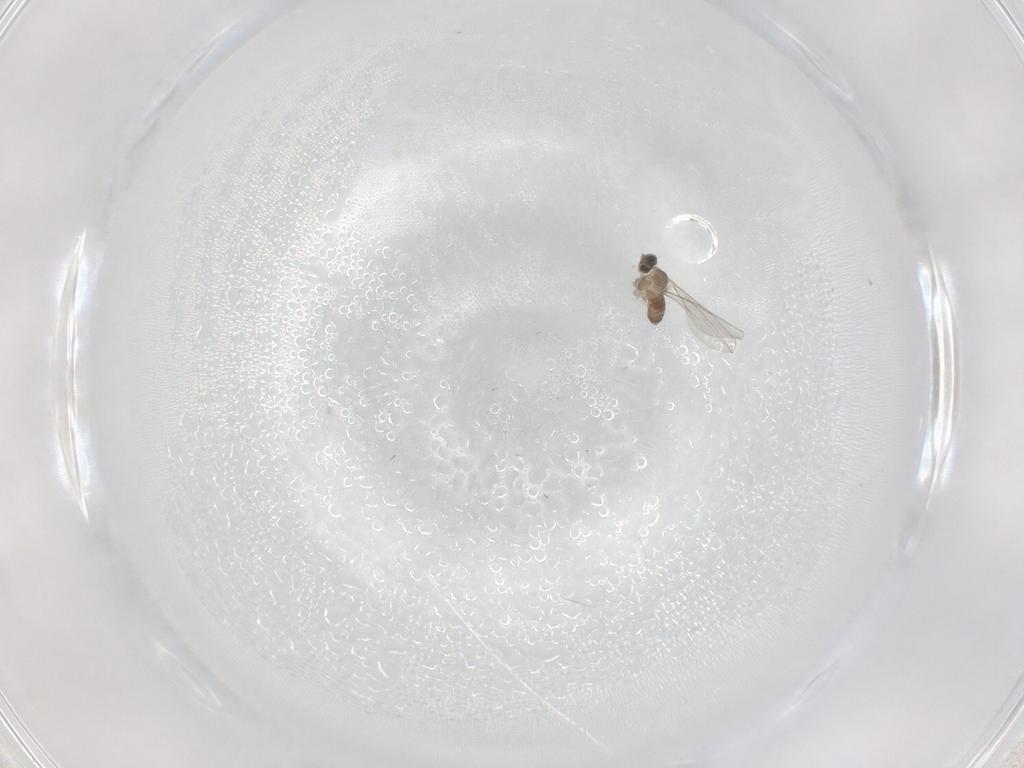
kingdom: Animalia
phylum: Arthropoda
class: Insecta
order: Diptera
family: Cecidomyiidae
